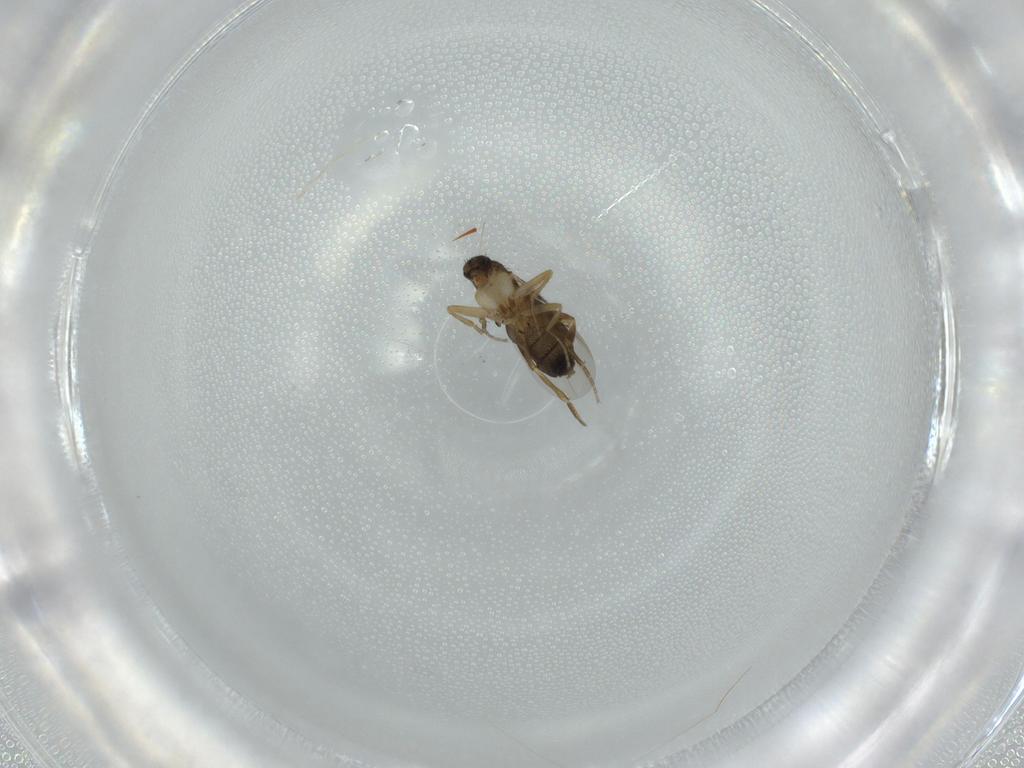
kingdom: Animalia
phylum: Arthropoda
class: Insecta
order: Diptera
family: Phoridae
